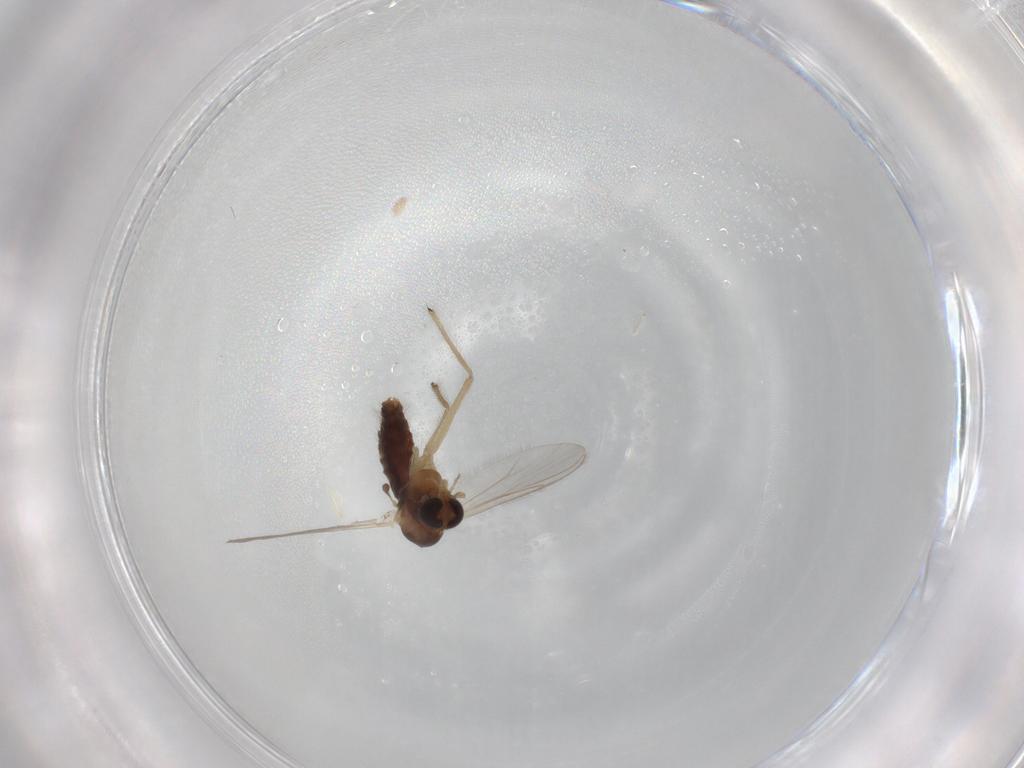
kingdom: Animalia
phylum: Arthropoda
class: Insecta
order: Diptera
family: Chironomidae
